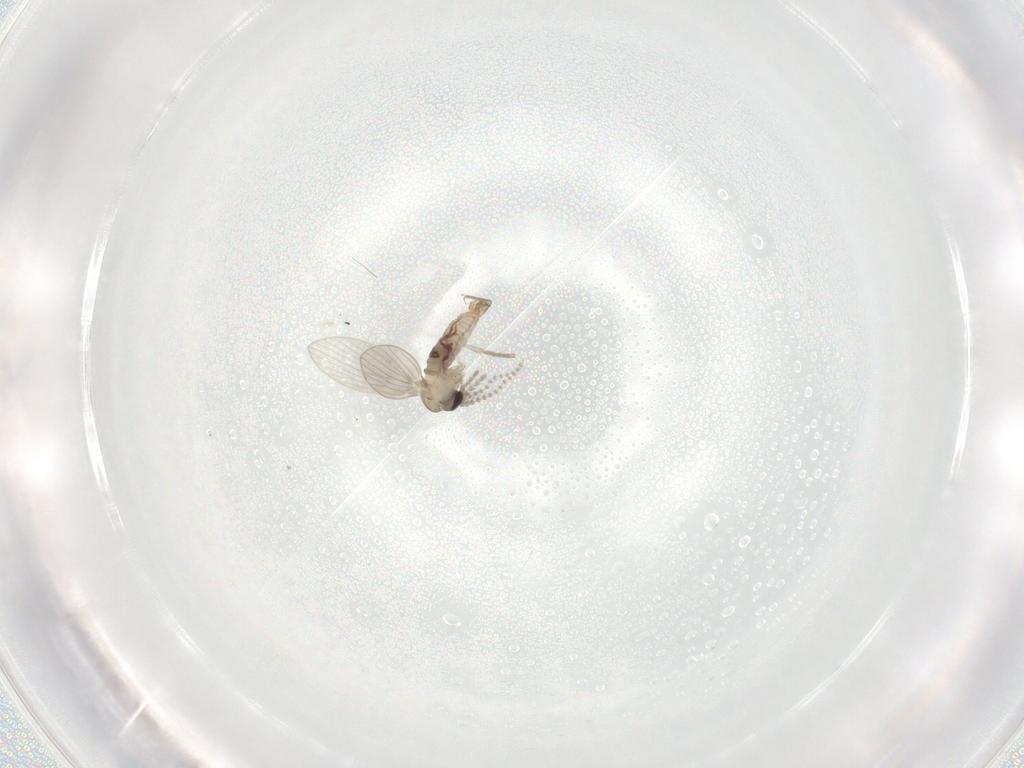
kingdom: Animalia
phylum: Arthropoda
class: Insecta
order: Diptera
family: Psychodidae
